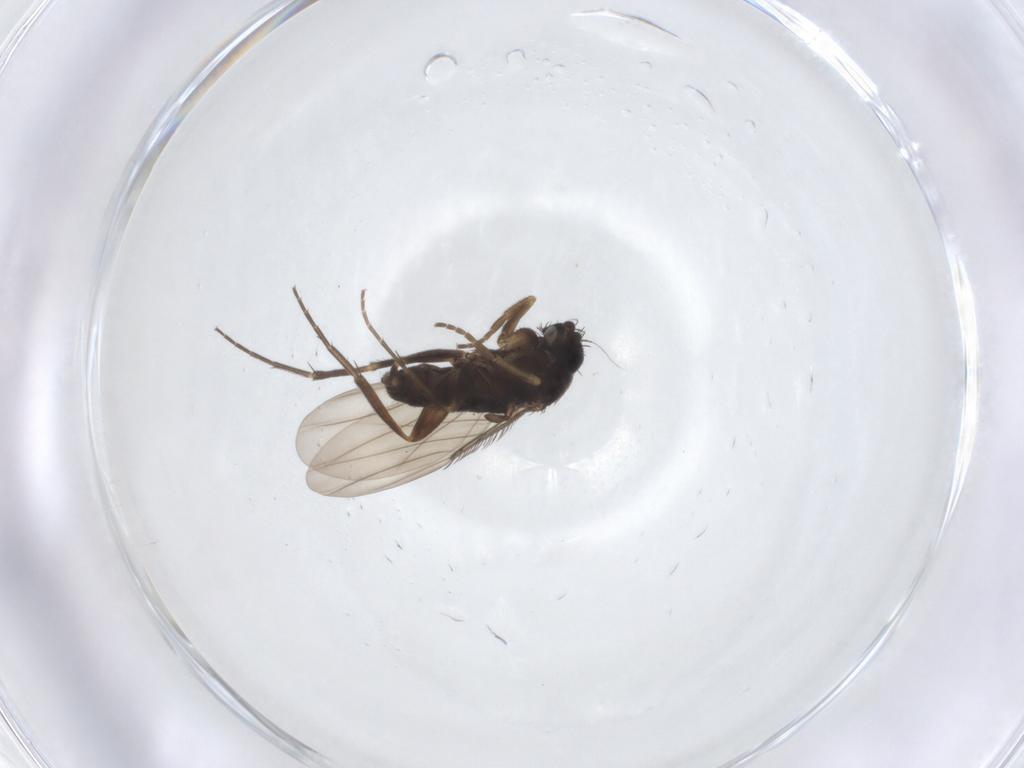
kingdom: Animalia
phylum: Arthropoda
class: Insecta
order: Diptera
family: Phoridae
